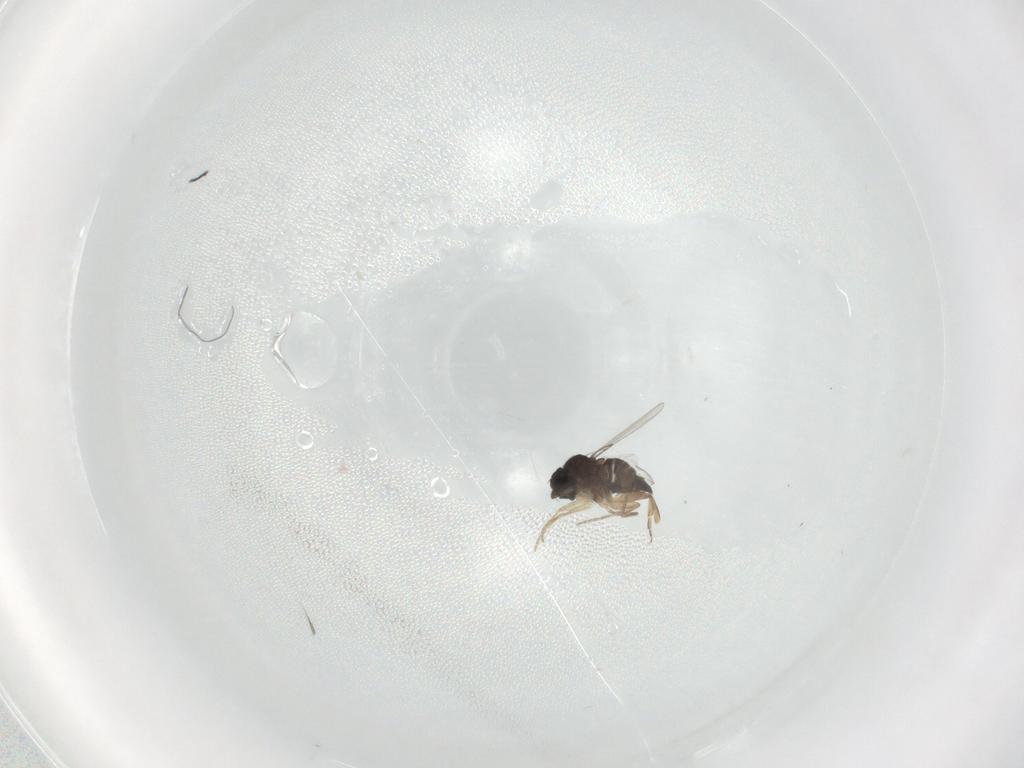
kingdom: Animalia
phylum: Arthropoda
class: Insecta
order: Diptera
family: Phoridae
